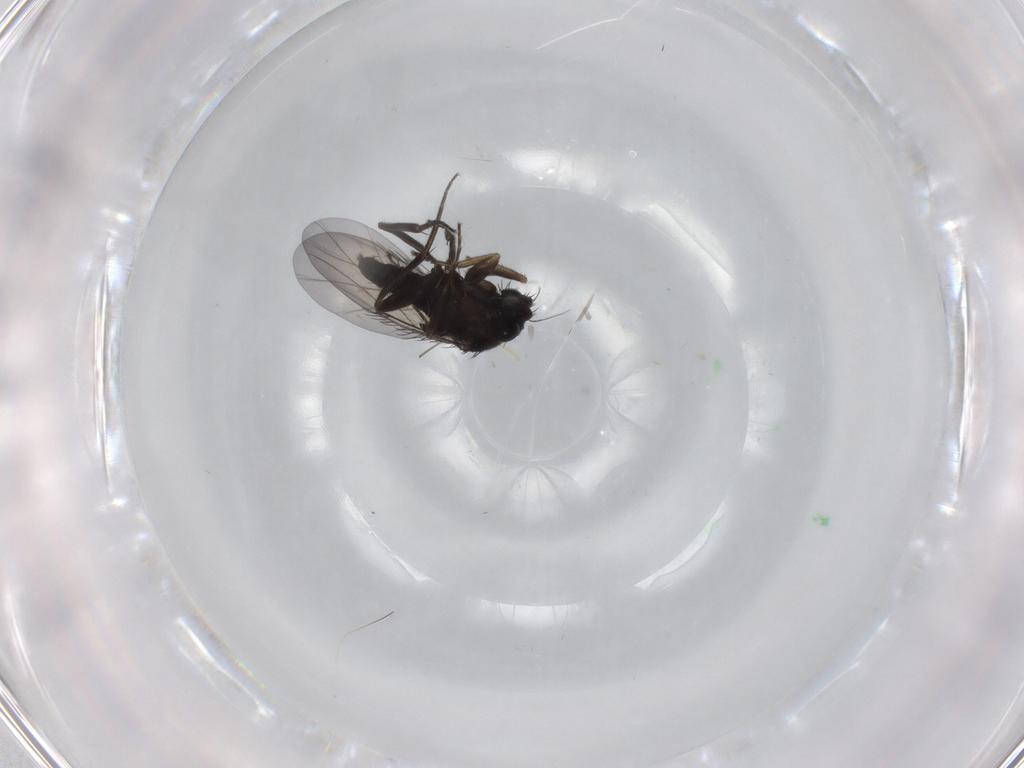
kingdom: Animalia
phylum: Arthropoda
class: Insecta
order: Diptera
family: Phoridae
